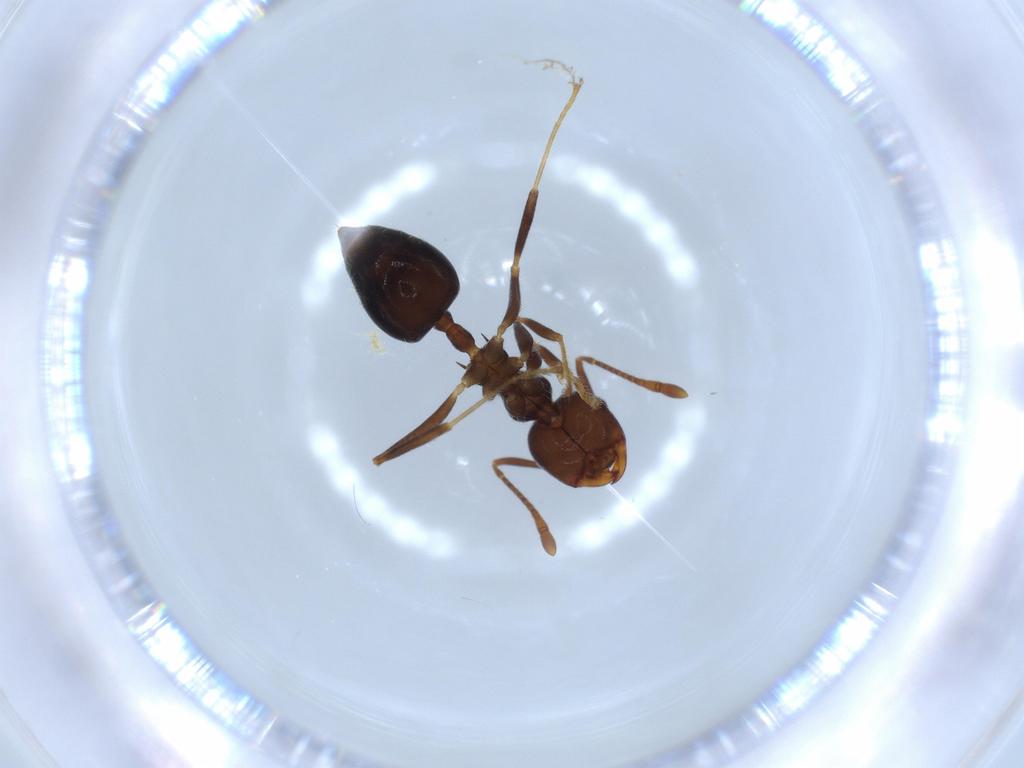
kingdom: Animalia
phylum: Arthropoda
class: Insecta
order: Hymenoptera
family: Formicidae
